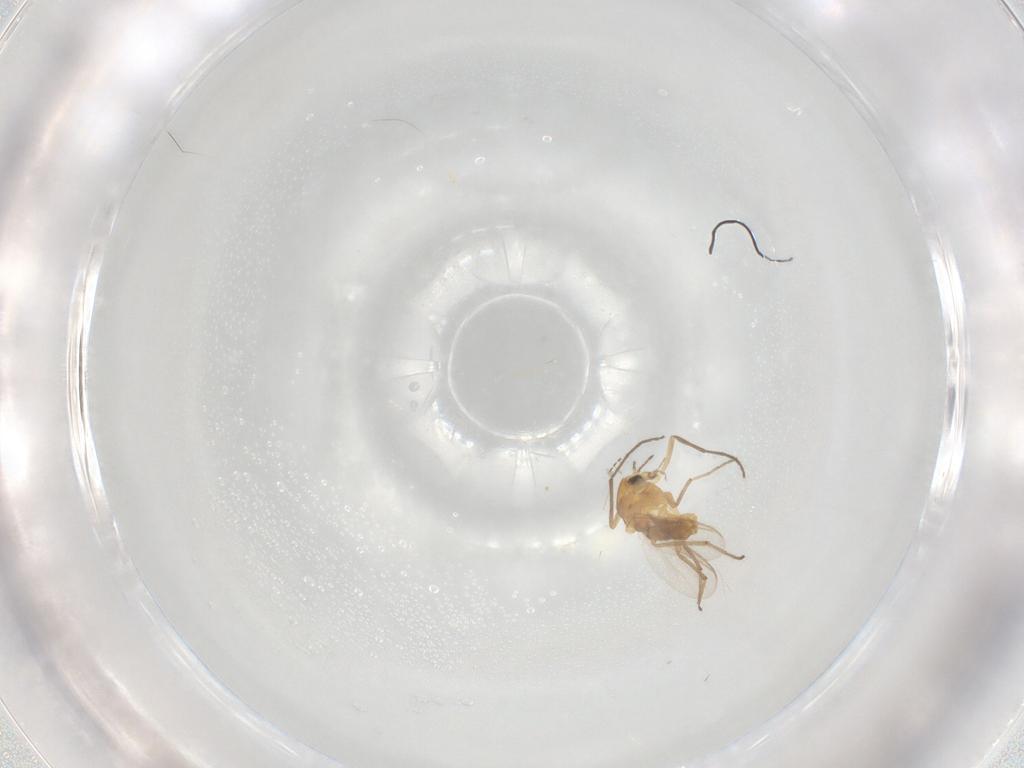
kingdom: Animalia
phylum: Arthropoda
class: Insecta
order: Diptera
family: Chironomidae
